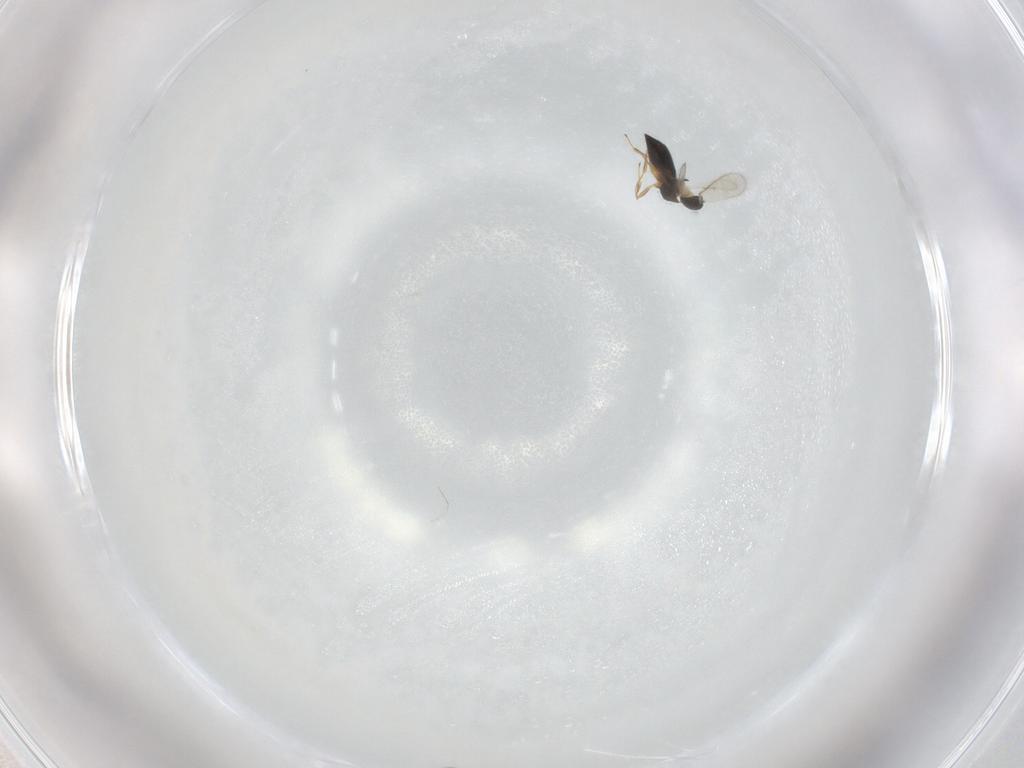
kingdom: Animalia
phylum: Arthropoda
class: Insecta
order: Hymenoptera
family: Scelionidae
